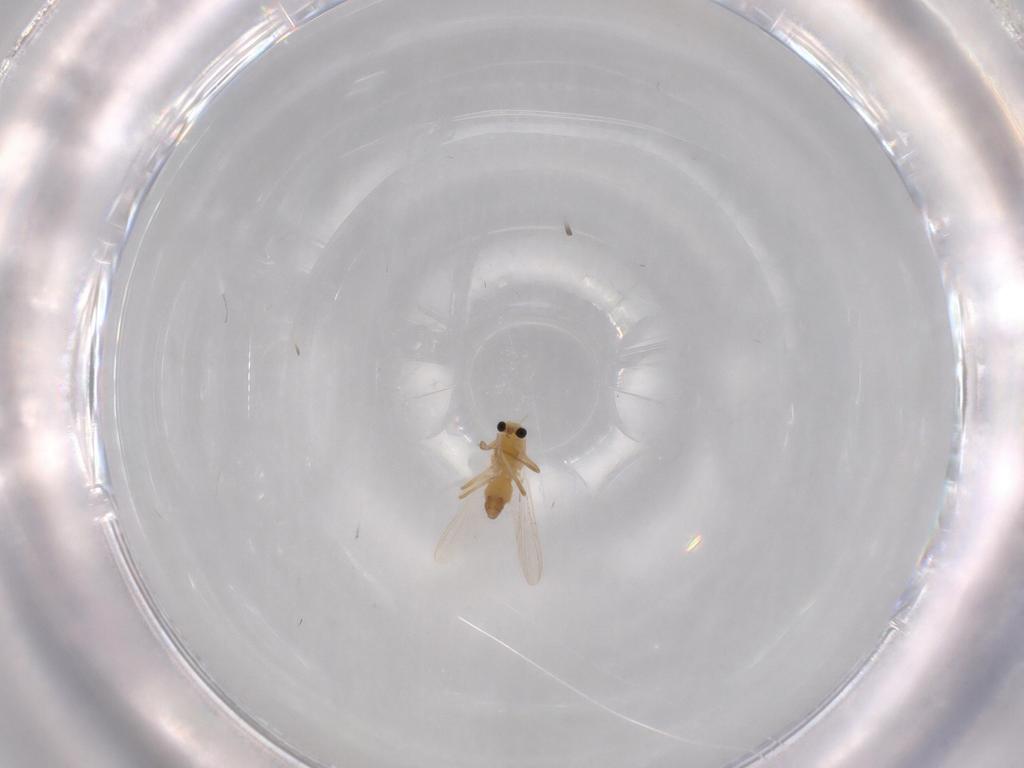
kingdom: Animalia
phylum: Arthropoda
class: Insecta
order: Diptera
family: Chironomidae
